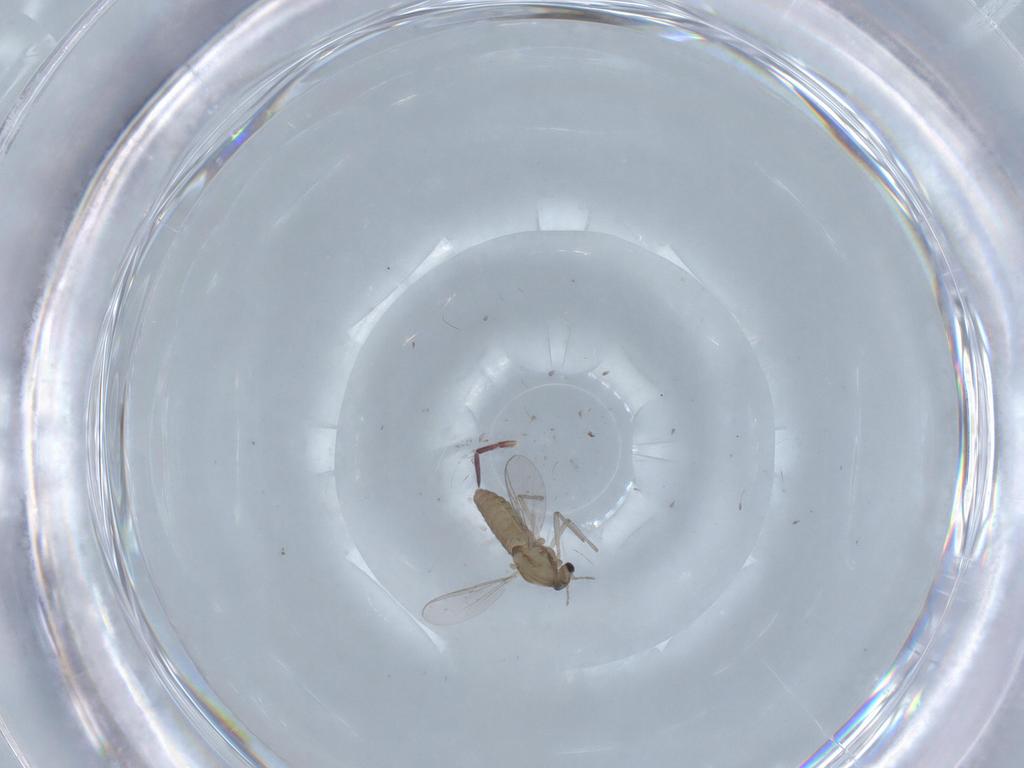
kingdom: Animalia
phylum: Arthropoda
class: Insecta
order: Diptera
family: Chironomidae
